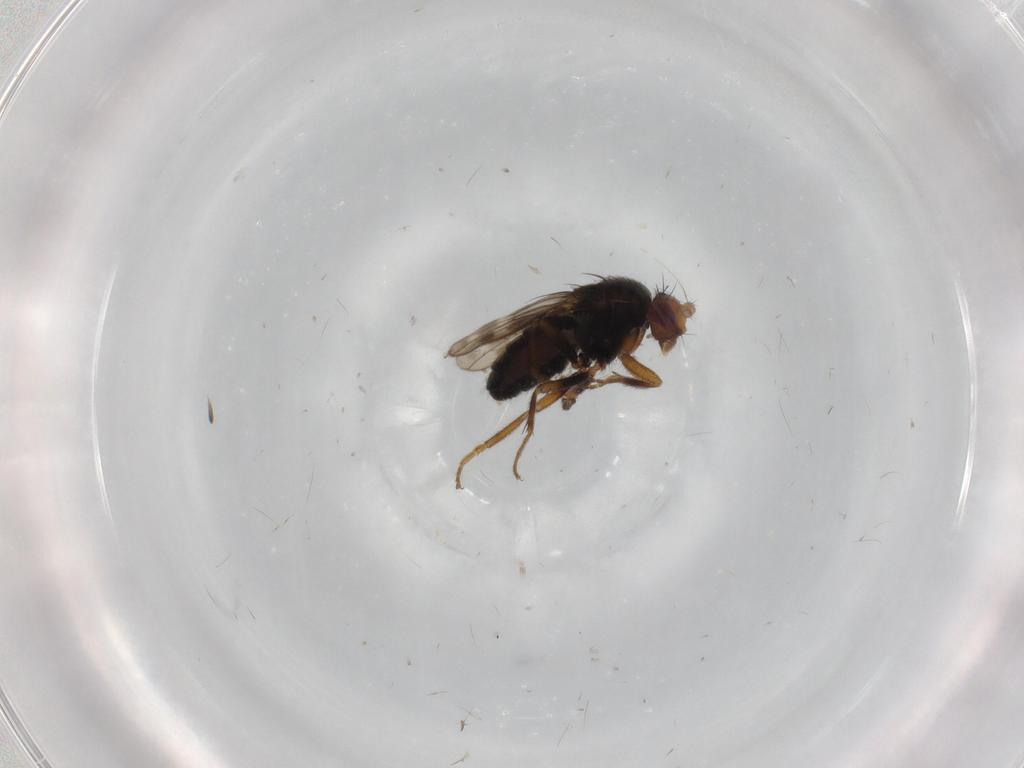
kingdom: Animalia
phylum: Arthropoda
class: Insecta
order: Diptera
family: Sphaeroceridae
